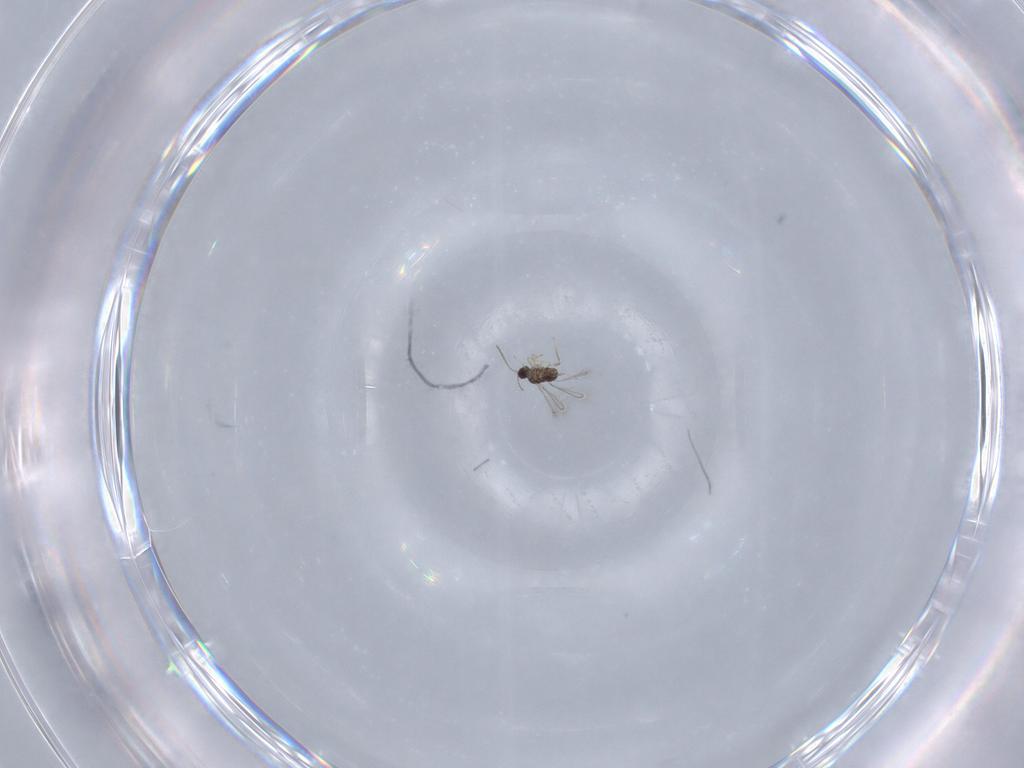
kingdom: Animalia
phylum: Arthropoda
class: Insecta
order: Hymenoptera
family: Mymaridae
